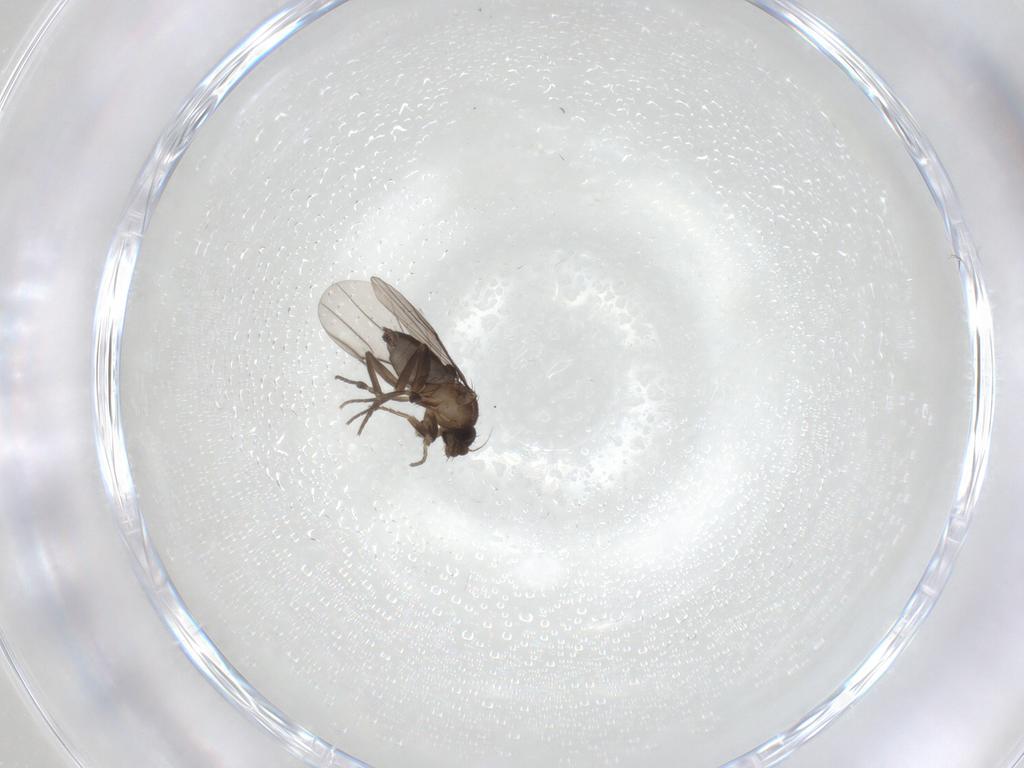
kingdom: Animalia
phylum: Arthropoda
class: Insecta
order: Diptera
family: Phoridae
